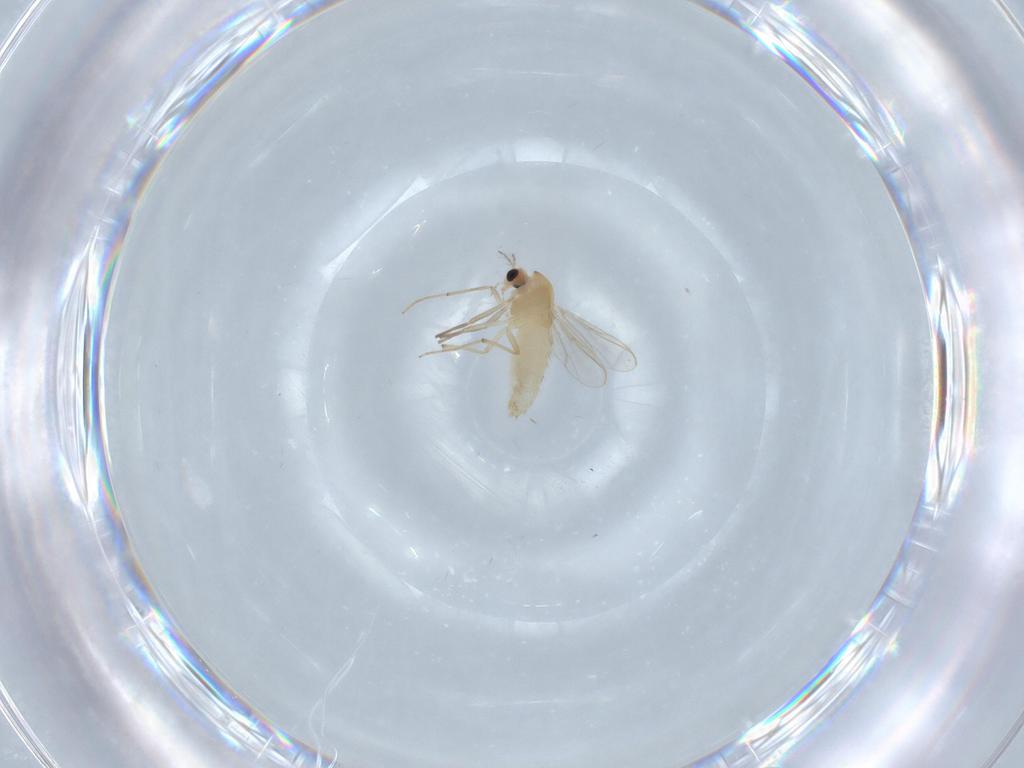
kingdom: Animalia
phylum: Arthropoda
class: Insecta
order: Diptera
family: Chironomidae
